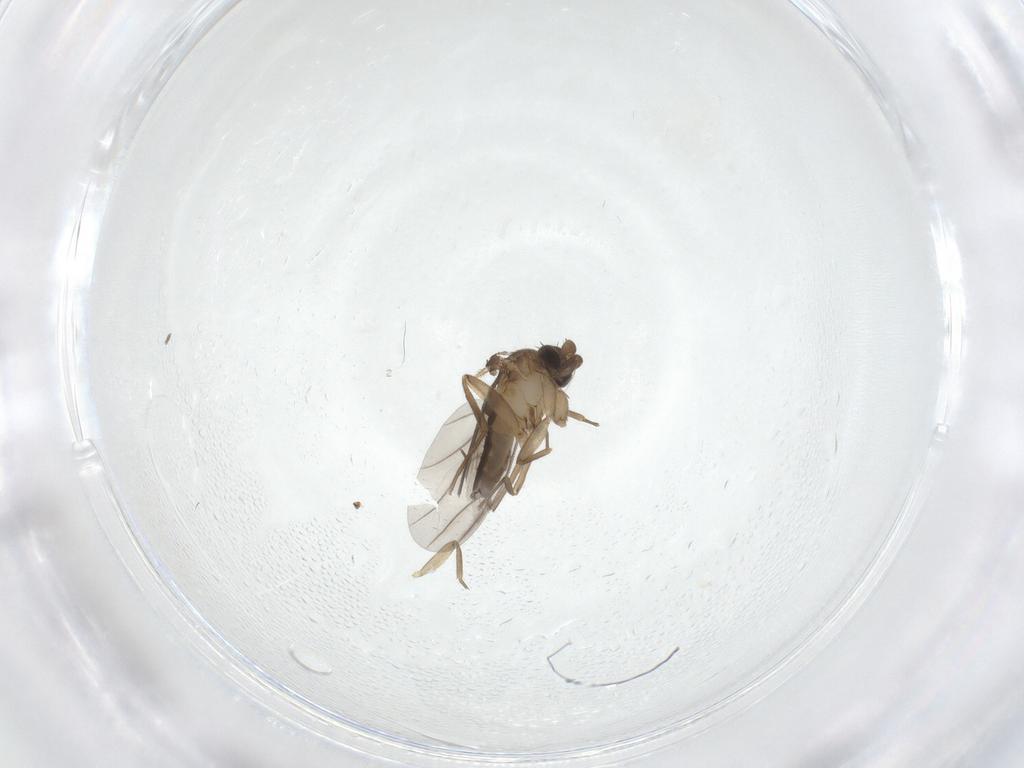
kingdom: Animalia
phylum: Arthropoda
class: Insecta
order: Diptera
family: Phoridae
